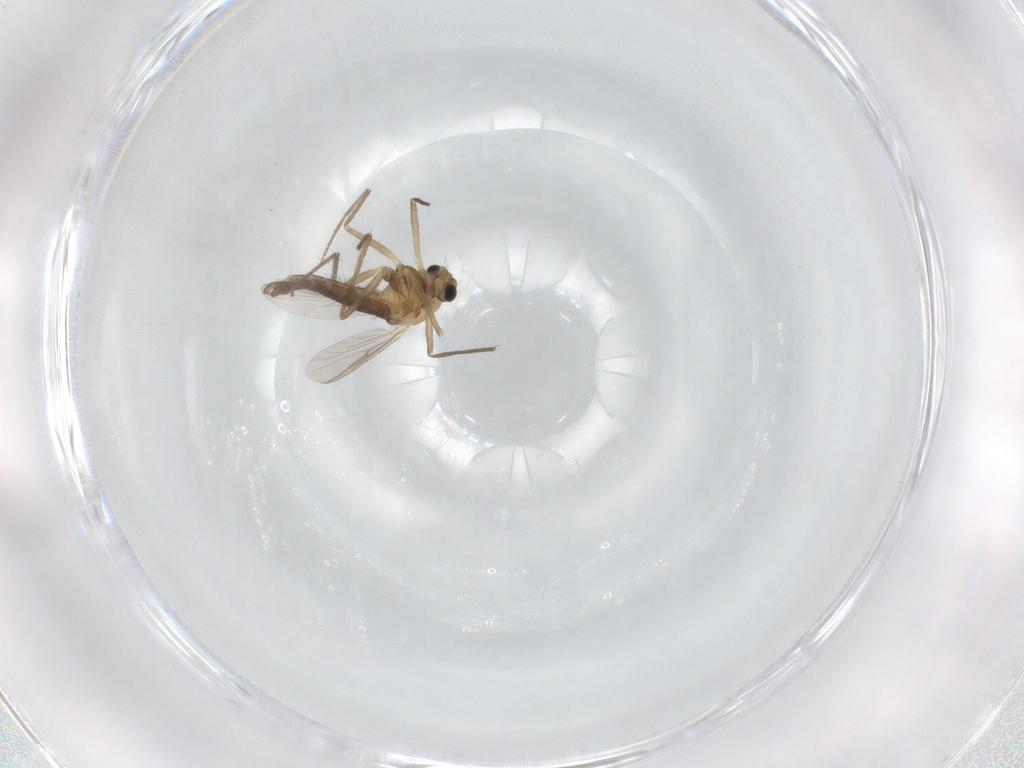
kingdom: Animalia
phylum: Arthropoda
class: Insecta
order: Diptera
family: Chironomidae
